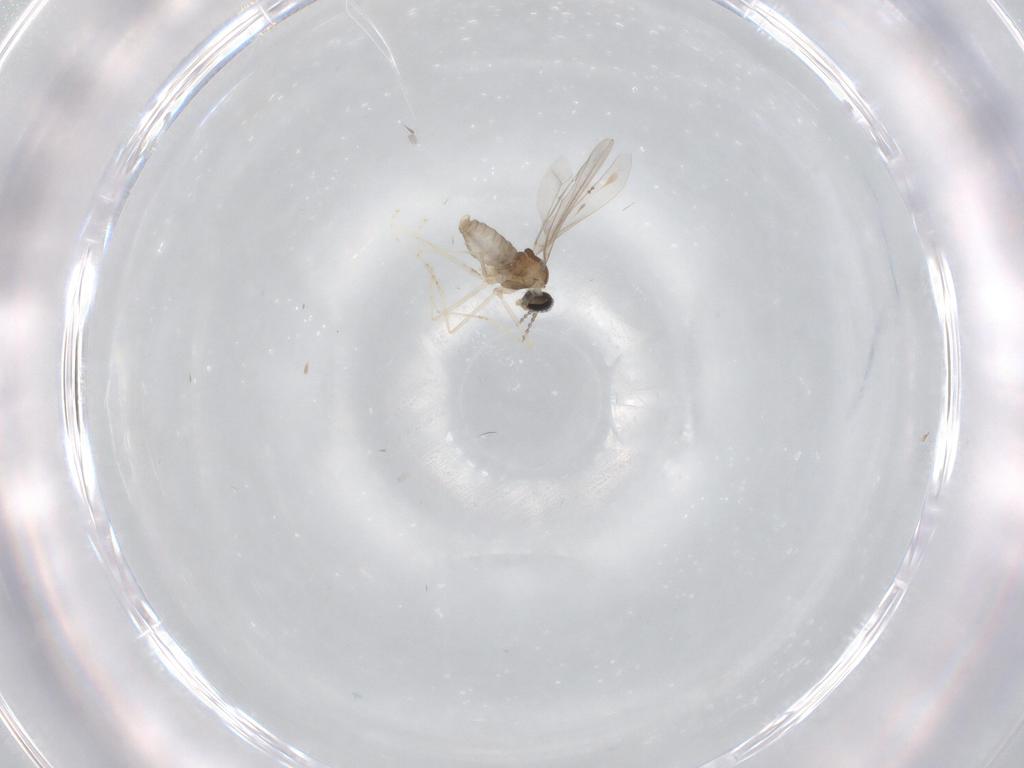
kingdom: Animalia
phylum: Arthropoda
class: Insecta
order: Diptera
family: Cecidomyiidae
